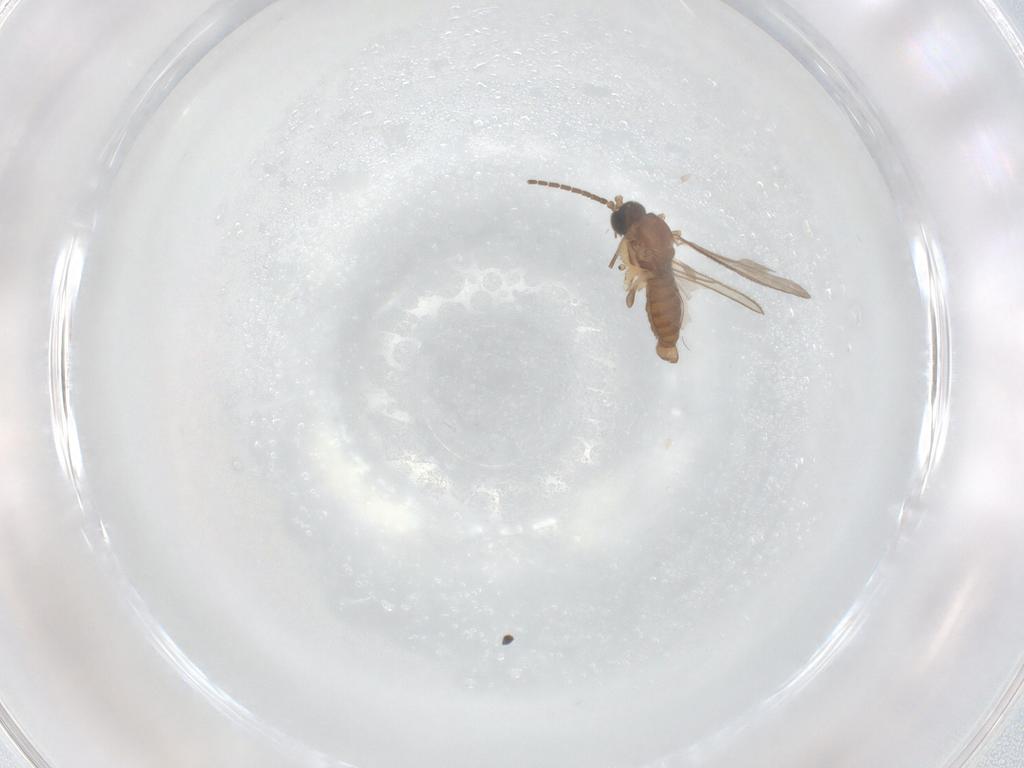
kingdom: Animalia
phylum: Arthropoda
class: Insecta
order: Diptera
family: Sciaridae
